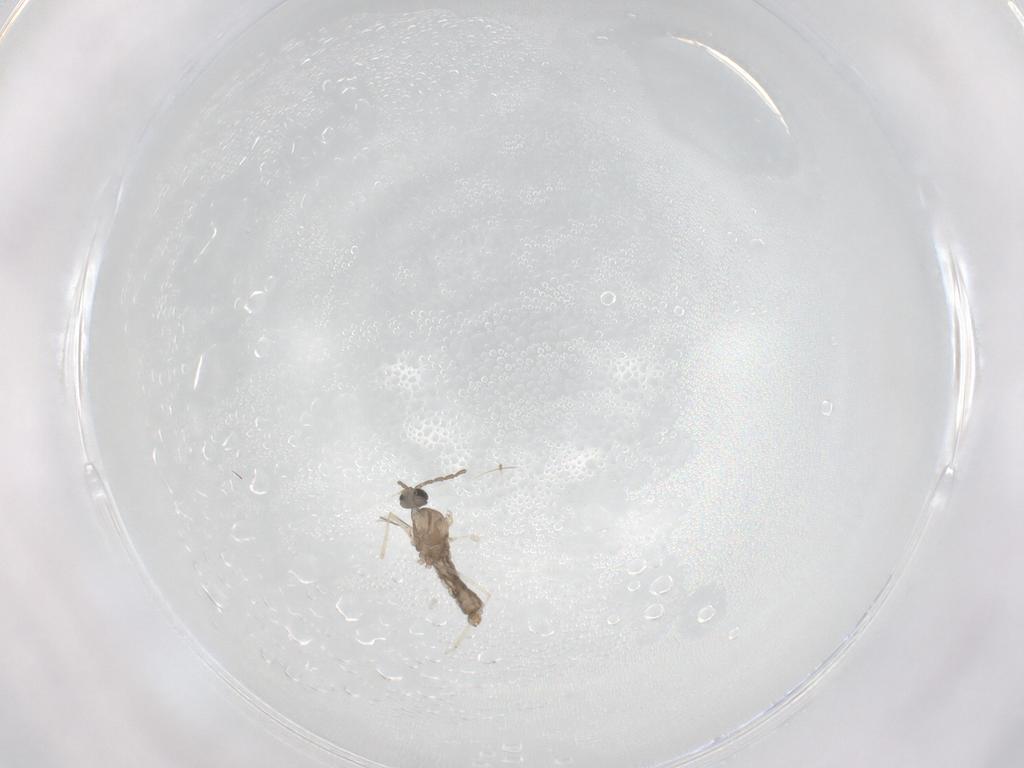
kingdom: Animalia
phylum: Arthropoda
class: Insecta
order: Diptera
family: Cecidomyiidae
